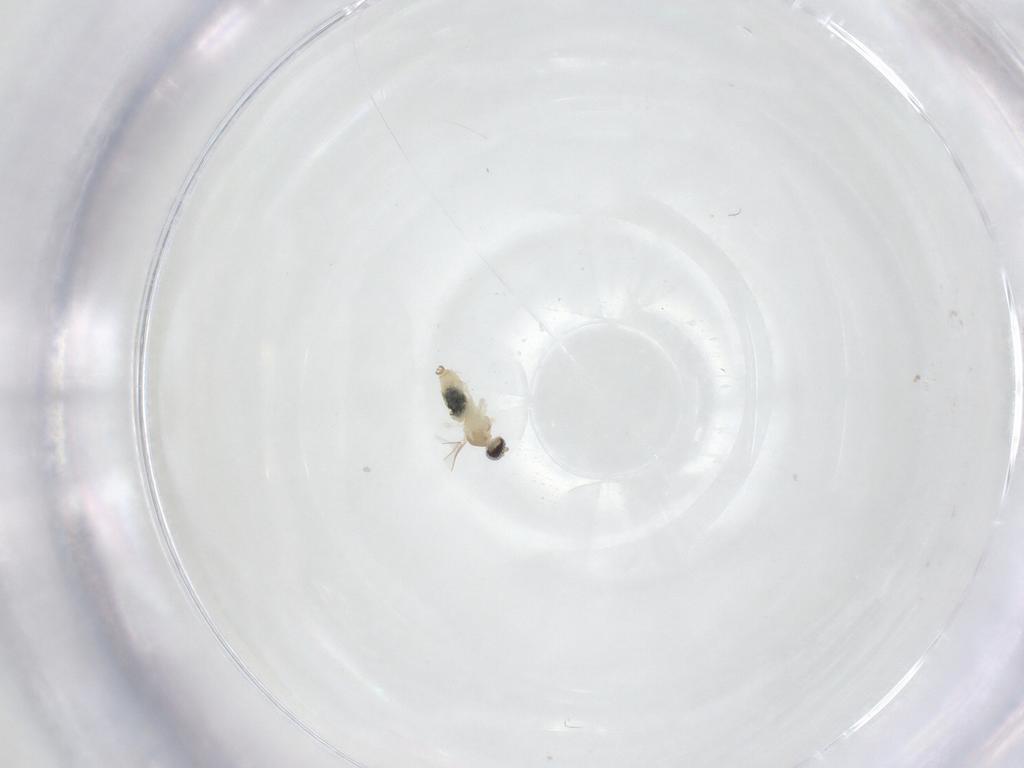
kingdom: Animalia
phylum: Arthropoda
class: Insecta
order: Diptera
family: Cecidomyiidae
